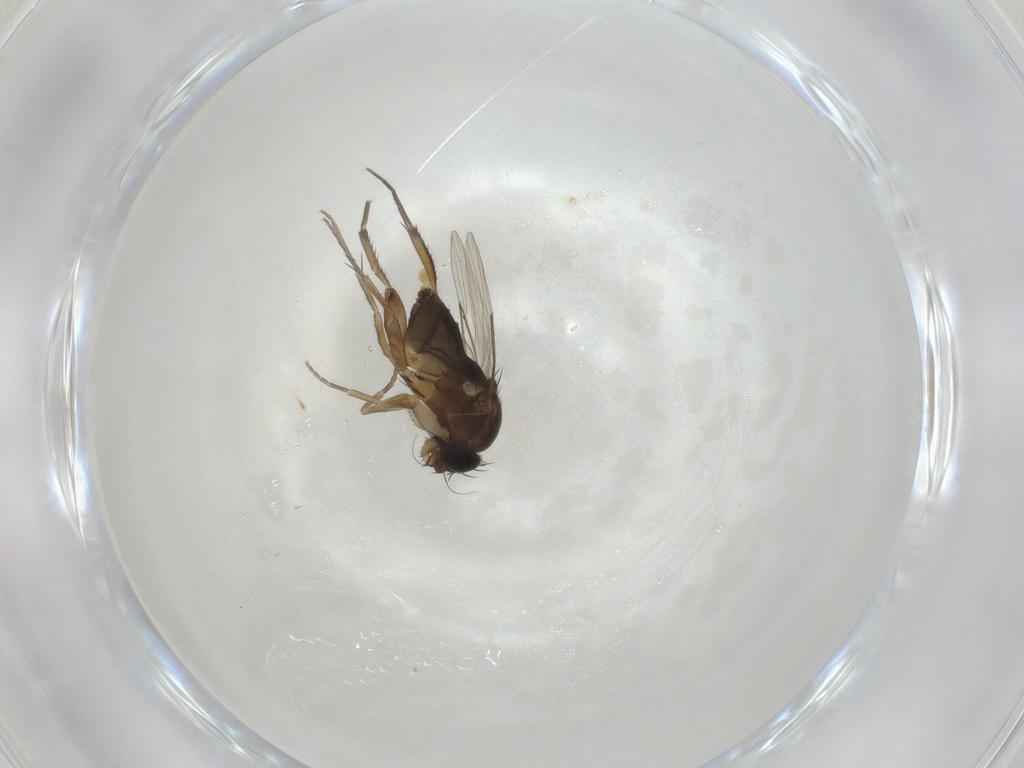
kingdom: Animalia
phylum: Arthropoda
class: Insecta
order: Diptera
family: Phoridae
